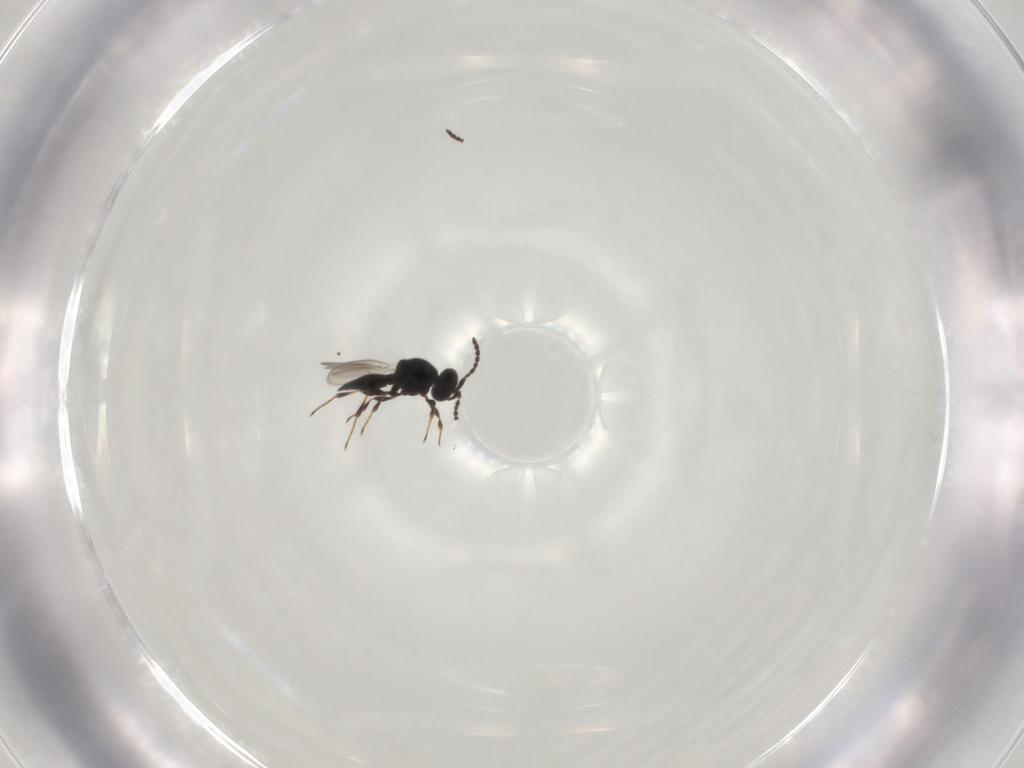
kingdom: Animalia
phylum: Arthropoda
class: Insecta
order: Hymenoptera
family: Platygastridae
